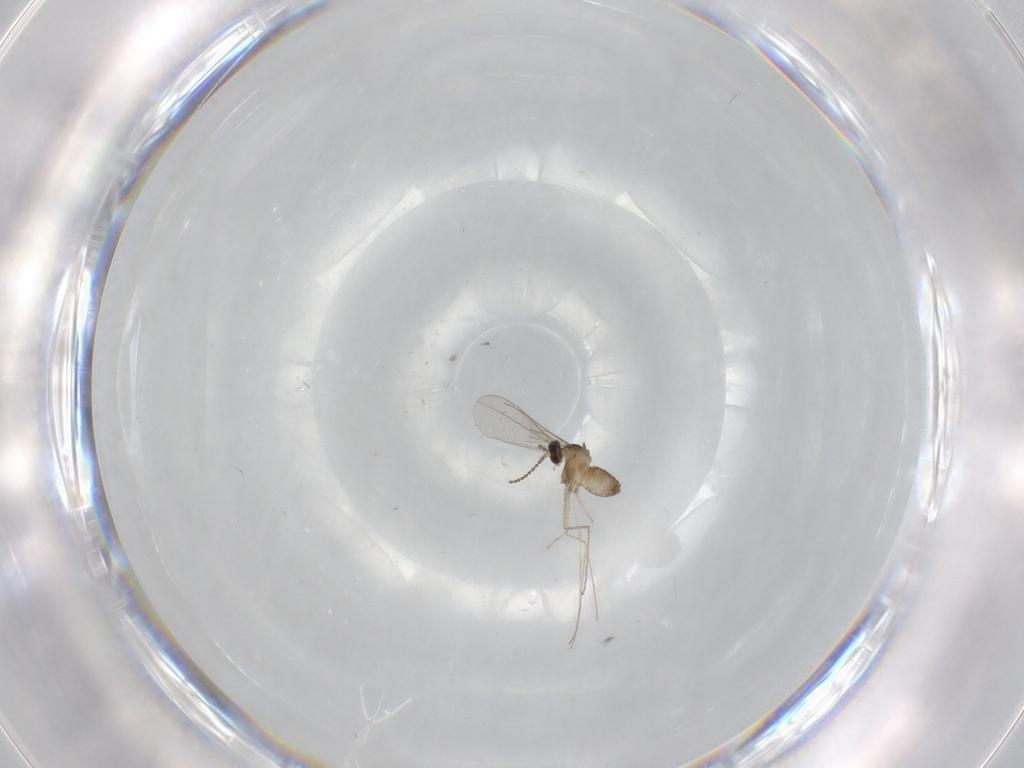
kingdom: Animalia
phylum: Arthropoda
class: Insecta
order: Diptera
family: Cecidomyiidae
